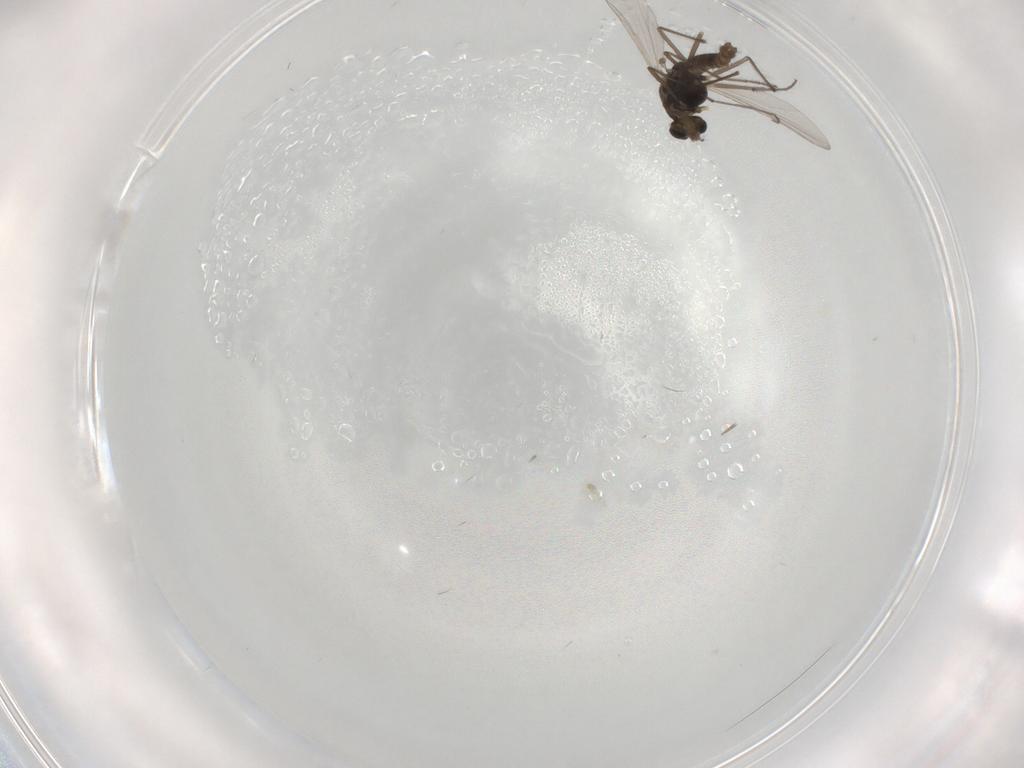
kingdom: Animalia
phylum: Arthropoda
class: Insecta
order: Diptera
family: Chironomidae
